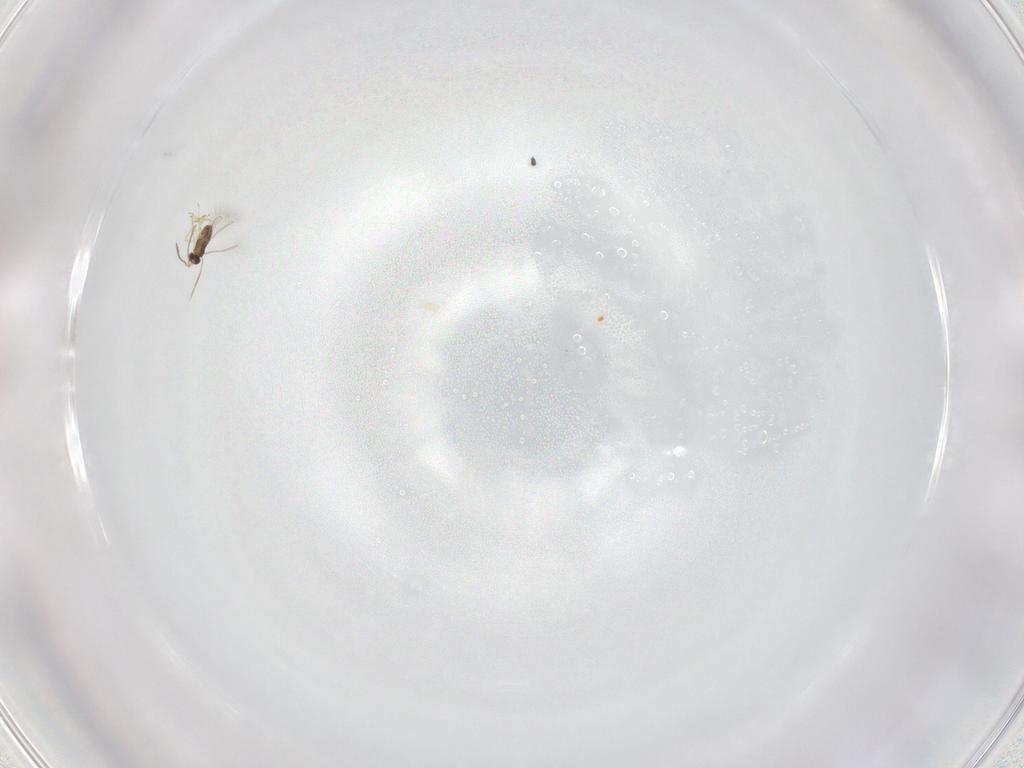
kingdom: Animalia
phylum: Arthropoda
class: Insecta
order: Hymenoptera
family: Mymaridae
